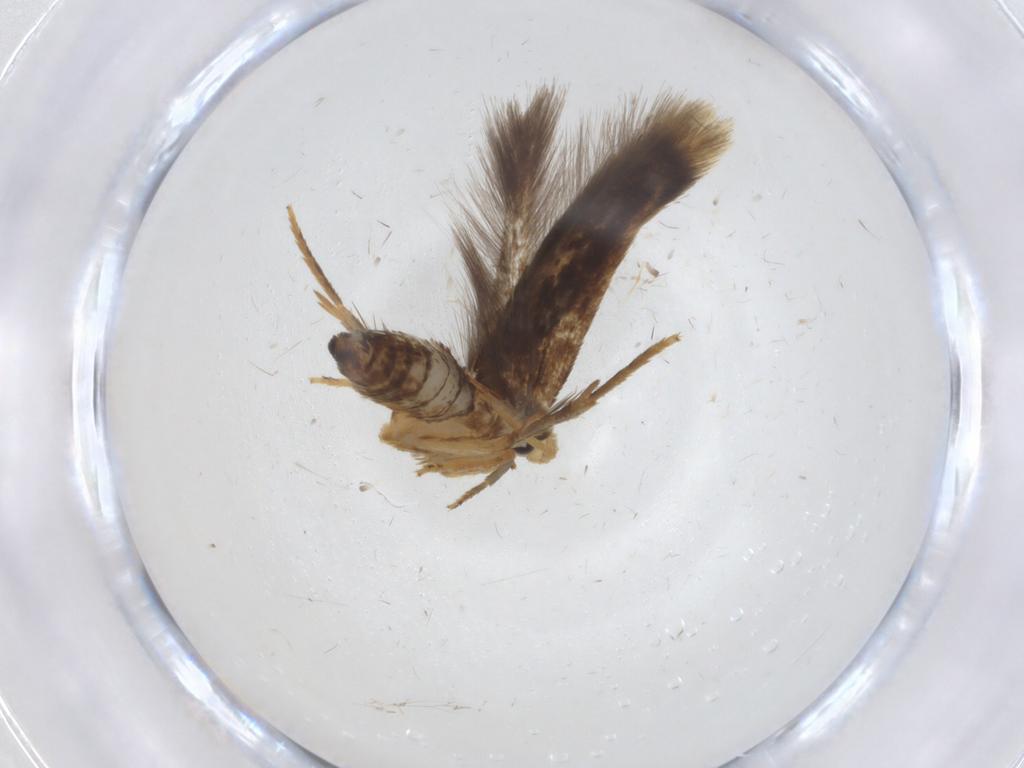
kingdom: Animalia
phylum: Arthropoda
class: Insecta
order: Lepidoptera
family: Nepticulidae
